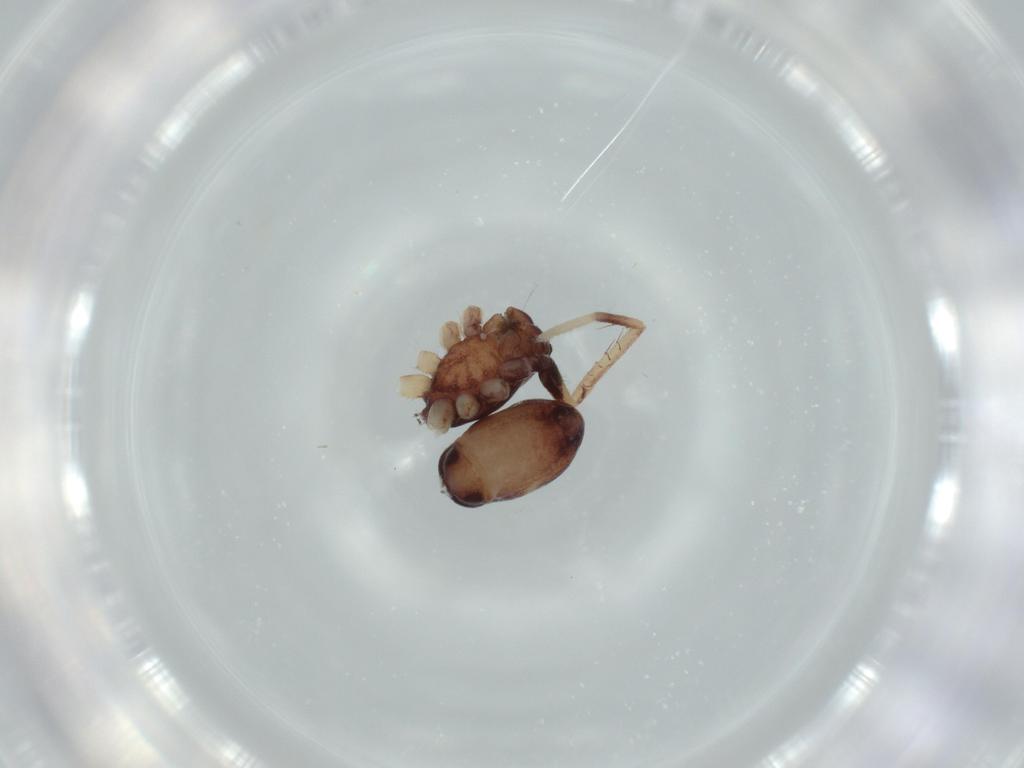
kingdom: Animalia
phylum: Arthropoda
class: Arachnida
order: Araneae
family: Corinnidae
